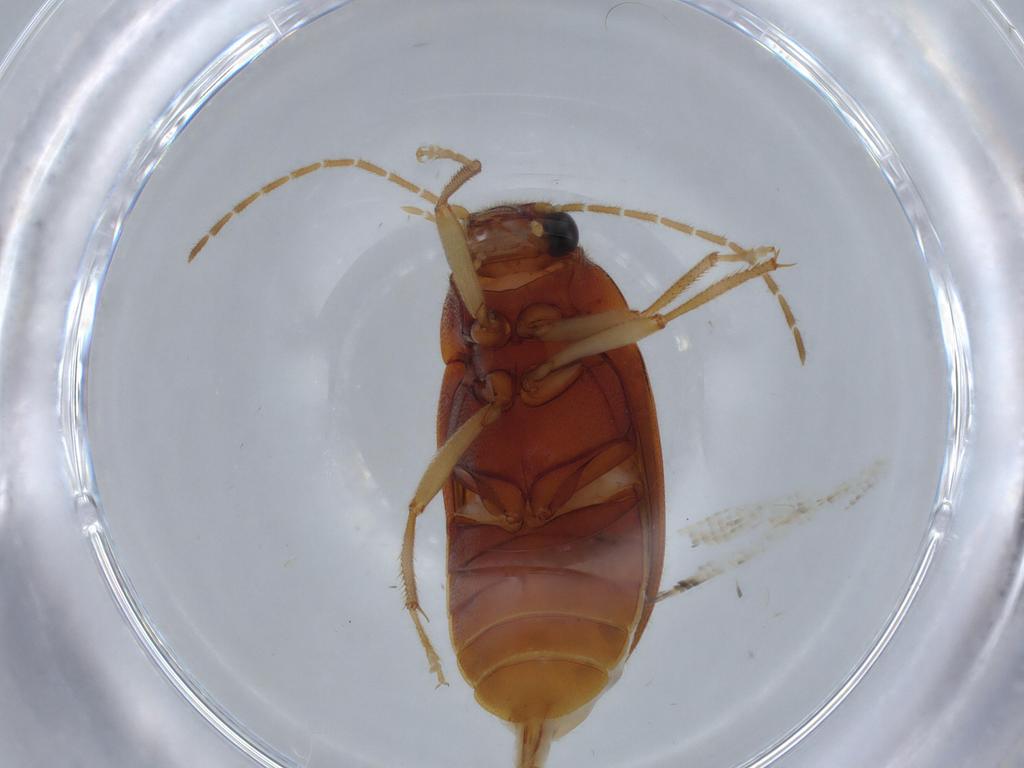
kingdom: Animalia
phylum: Arthropoda
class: Insecta
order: Coleoptera
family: Ptilodactylidae
